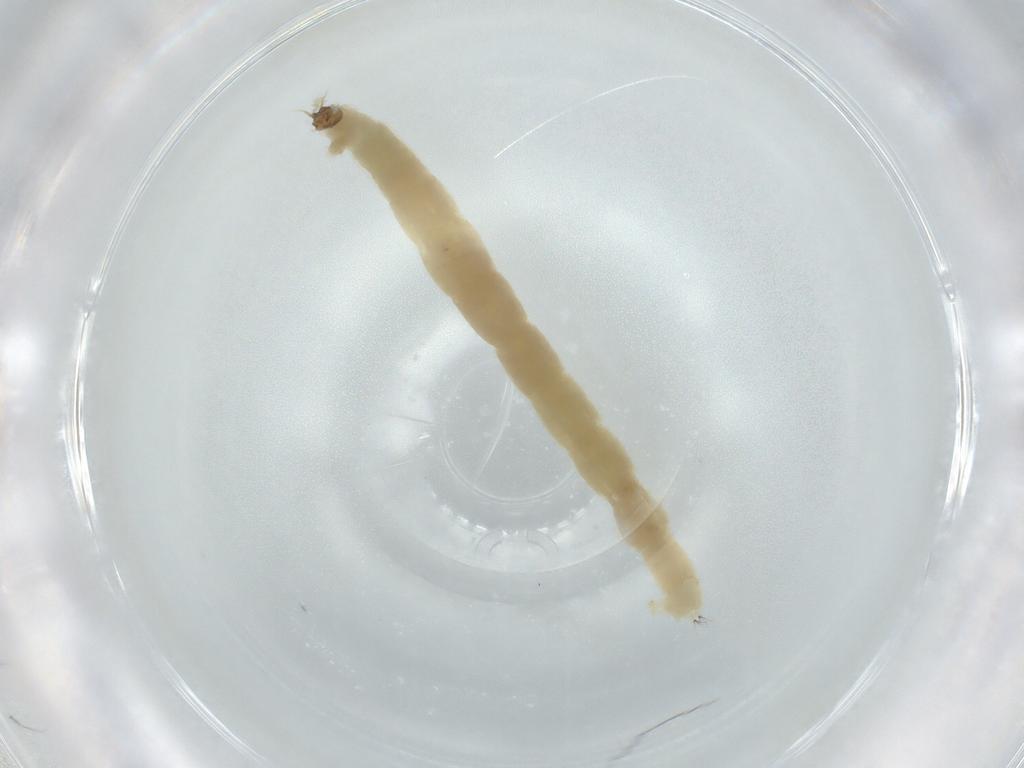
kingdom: Animalia
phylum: Arthropoda
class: Insecta
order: Diptera
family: Chironomidae
